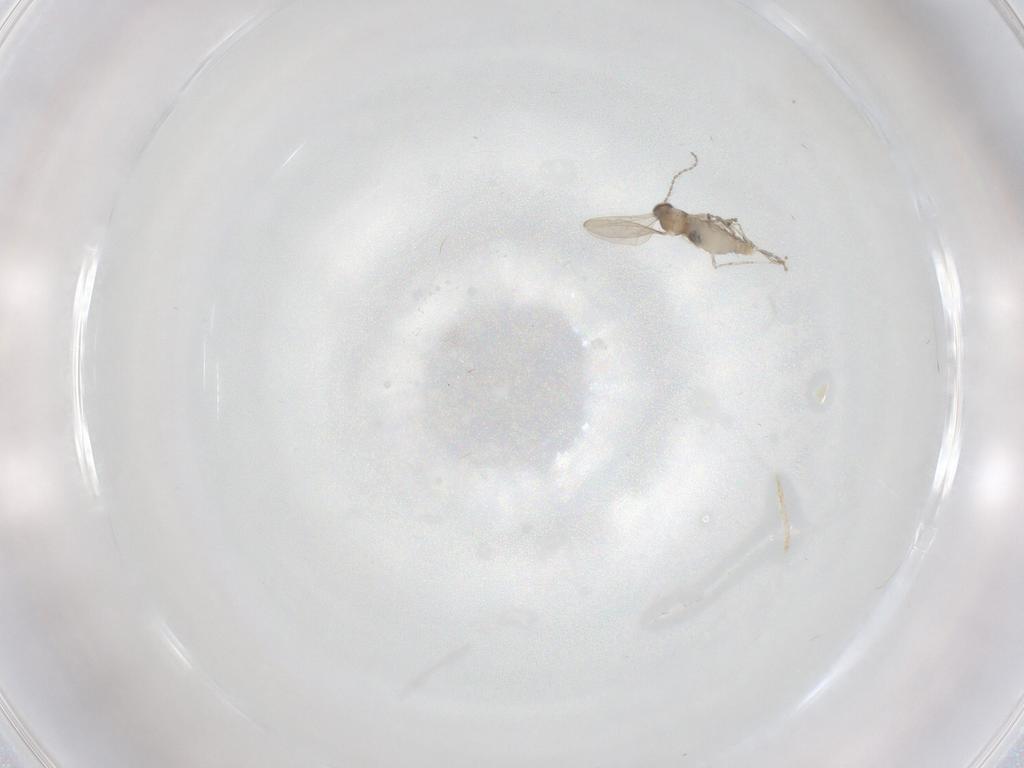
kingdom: Animalia
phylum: Arthropoda
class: Insecta
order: Diptera
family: Cecidomyiidae
